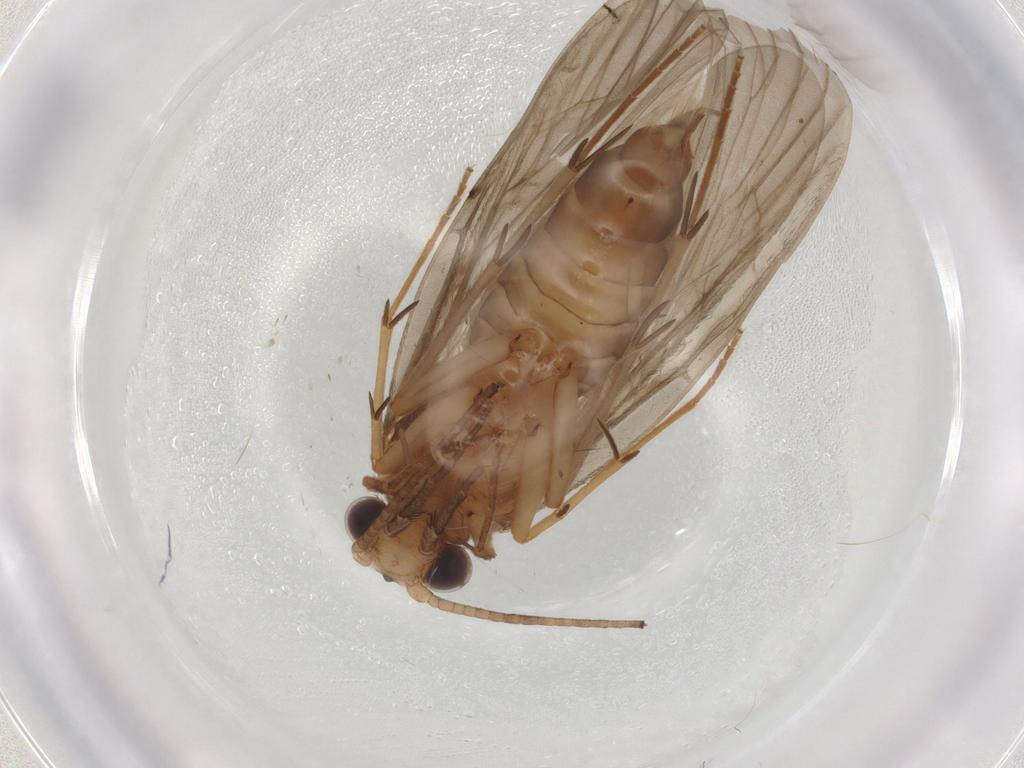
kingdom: Animalia
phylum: Arthropoda
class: Insecta
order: Trichoptera
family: Philopotamidae
